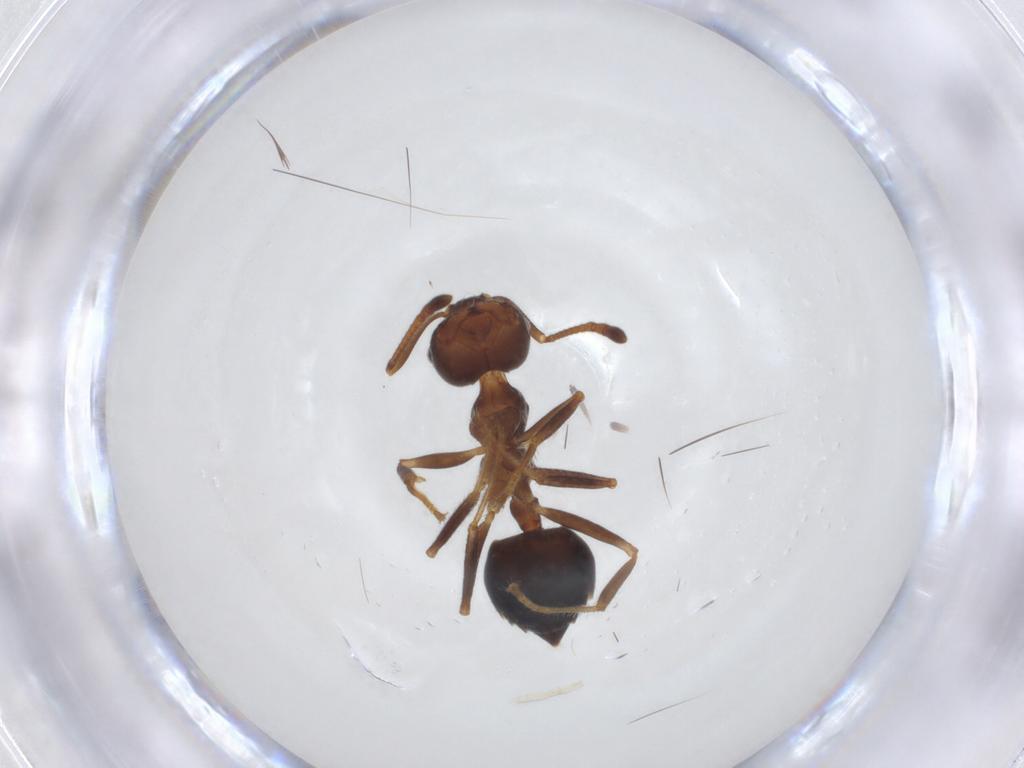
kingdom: Animalia
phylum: Arthropoda
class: Insecta
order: Hymenoptera
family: Formicidae
